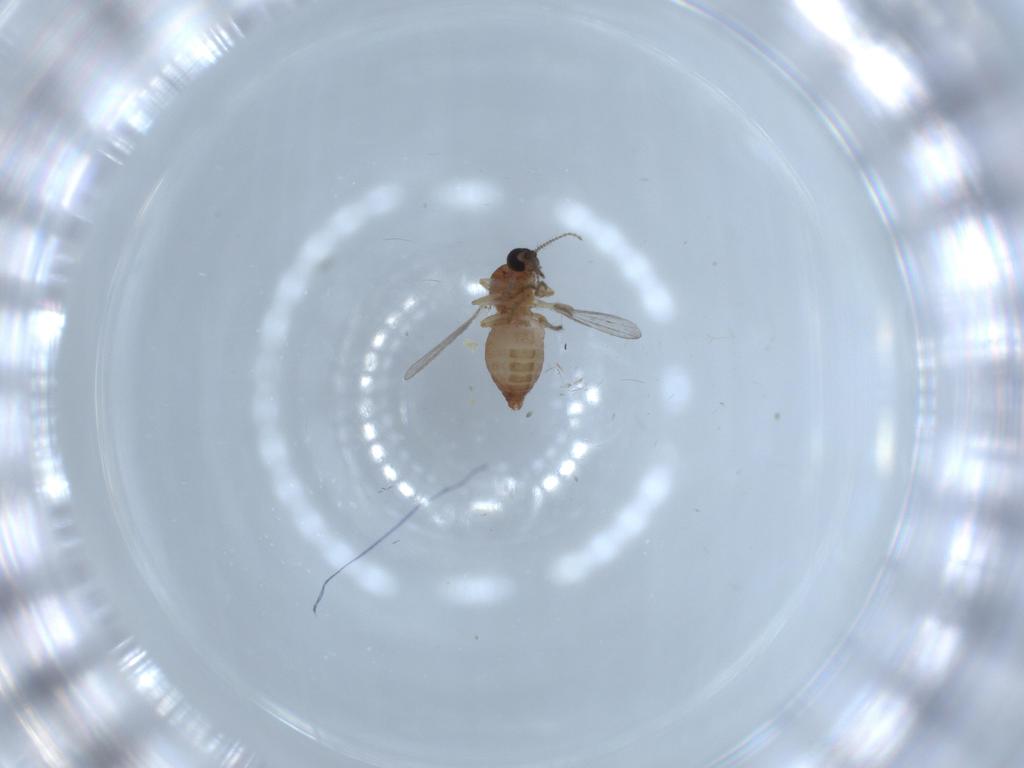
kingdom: Animalia
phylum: Arthropoda
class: Insecta
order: Diptera
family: Ceratopogonidae
